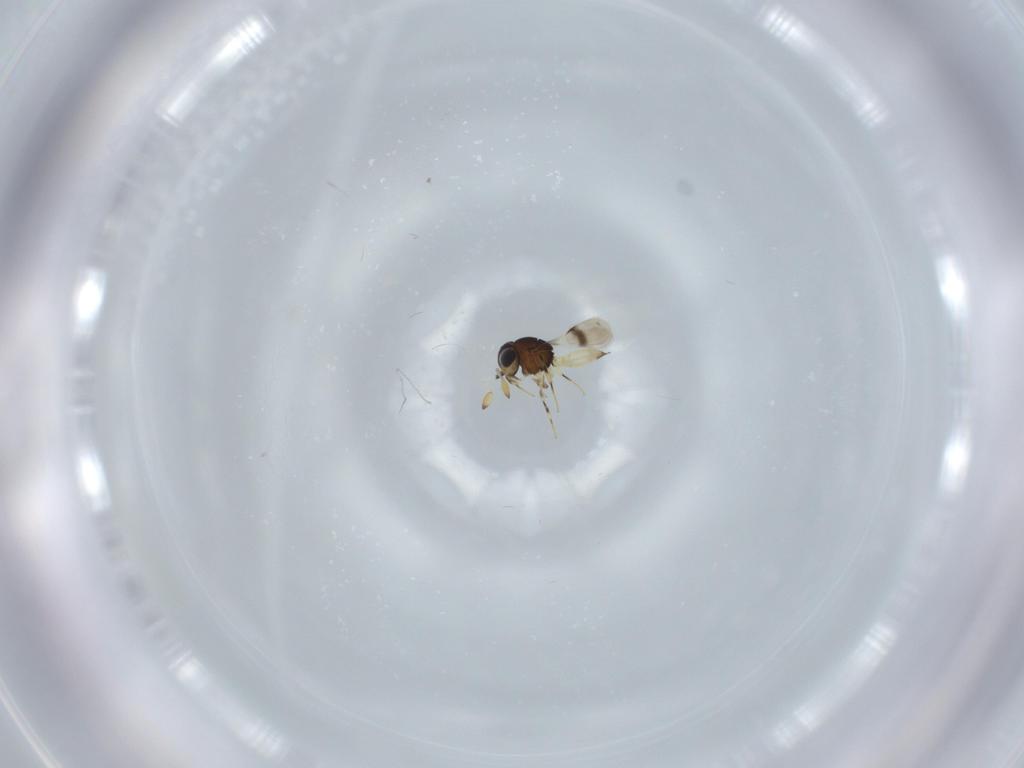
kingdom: Animalia
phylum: Arthropoda
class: Insecta
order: Hymenoptera
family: Scelionidae
